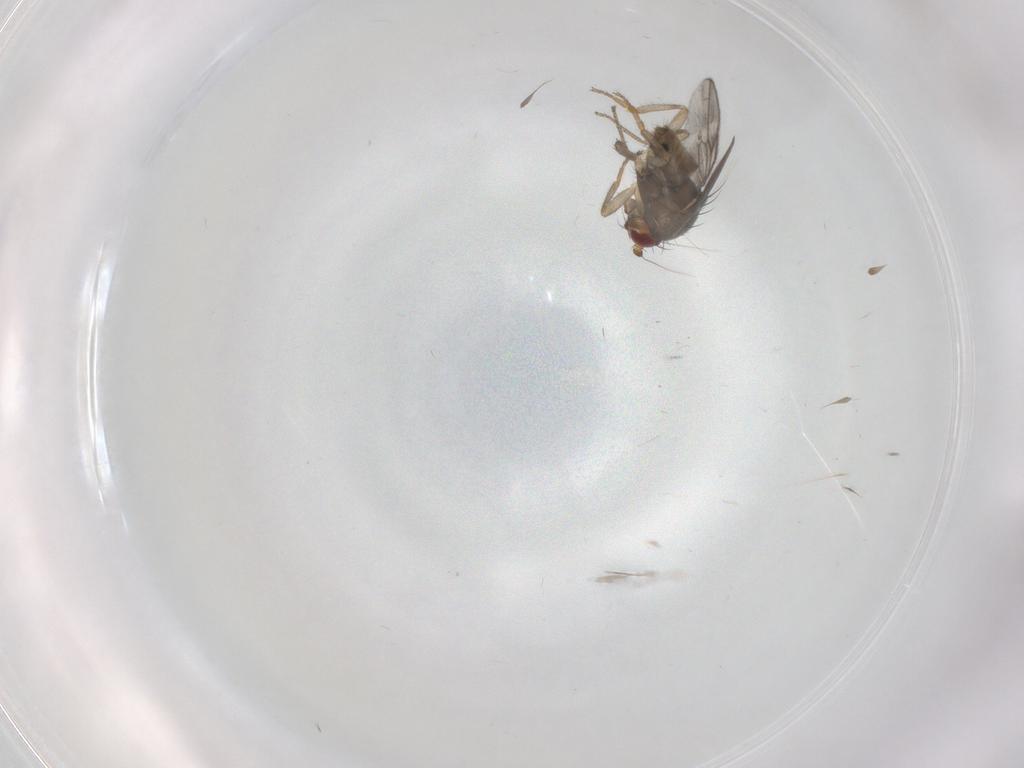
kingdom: Animalia
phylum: Arthropoda
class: Insecta
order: Diptera
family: Sphaeroceridae
